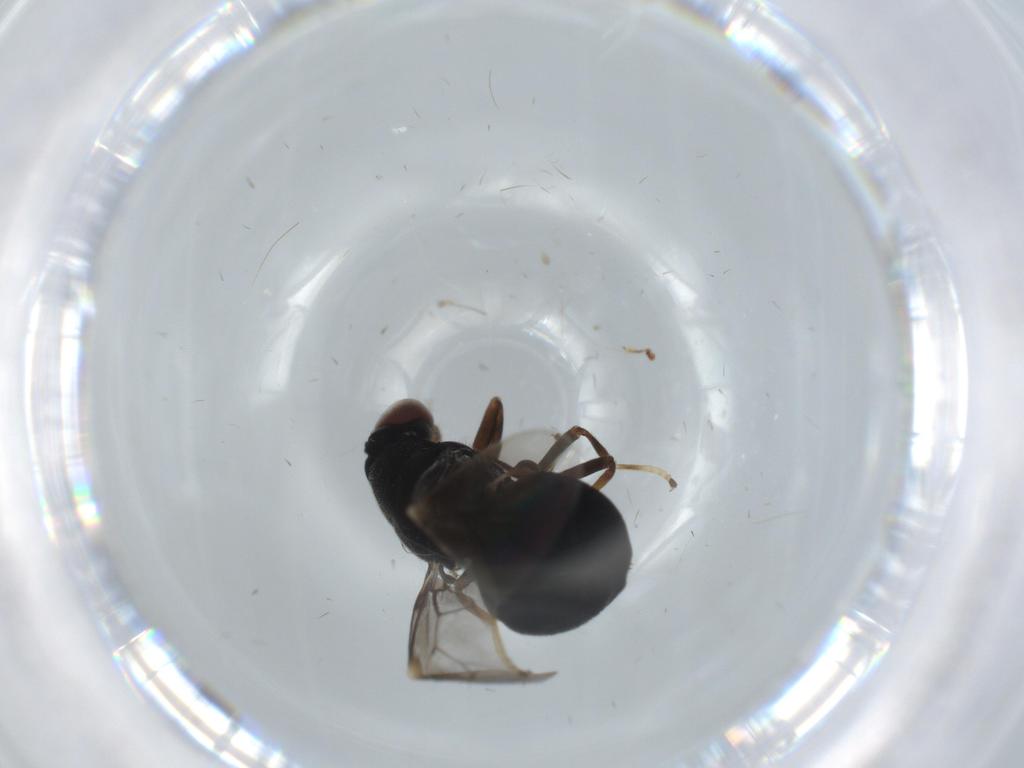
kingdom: Animalia
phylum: Arthropoda
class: Insecta
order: Diptera
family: Stratiomyidae
